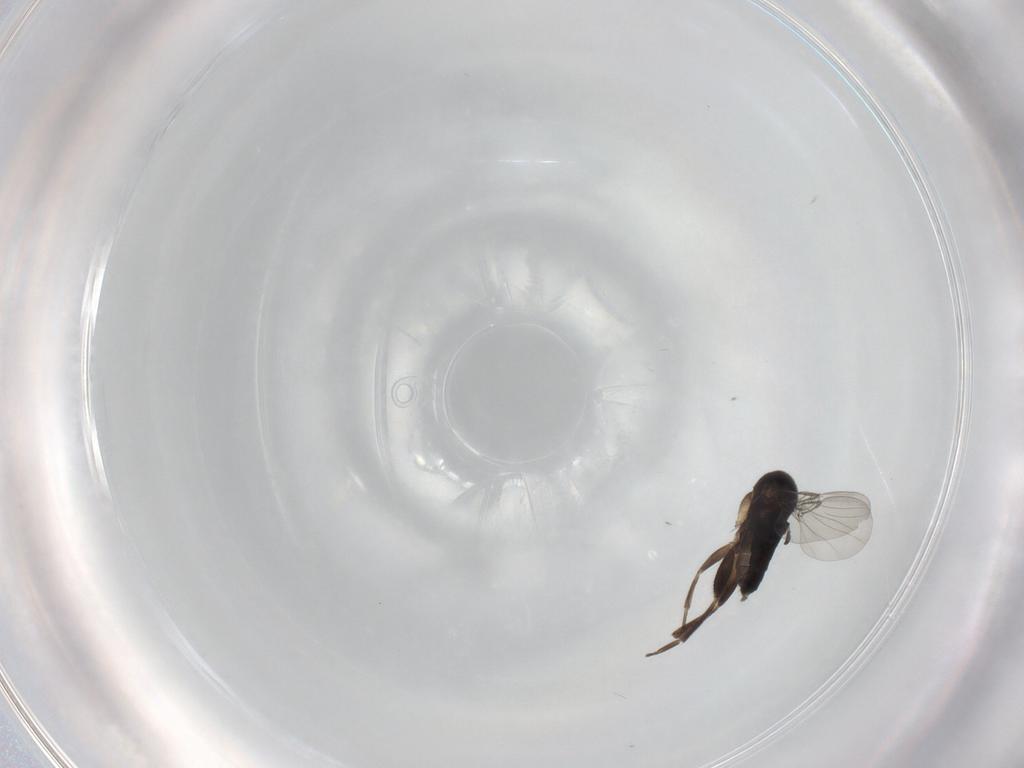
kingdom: Animalia
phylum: Arthropoda
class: Insecta
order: Diptera
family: Phoridae
